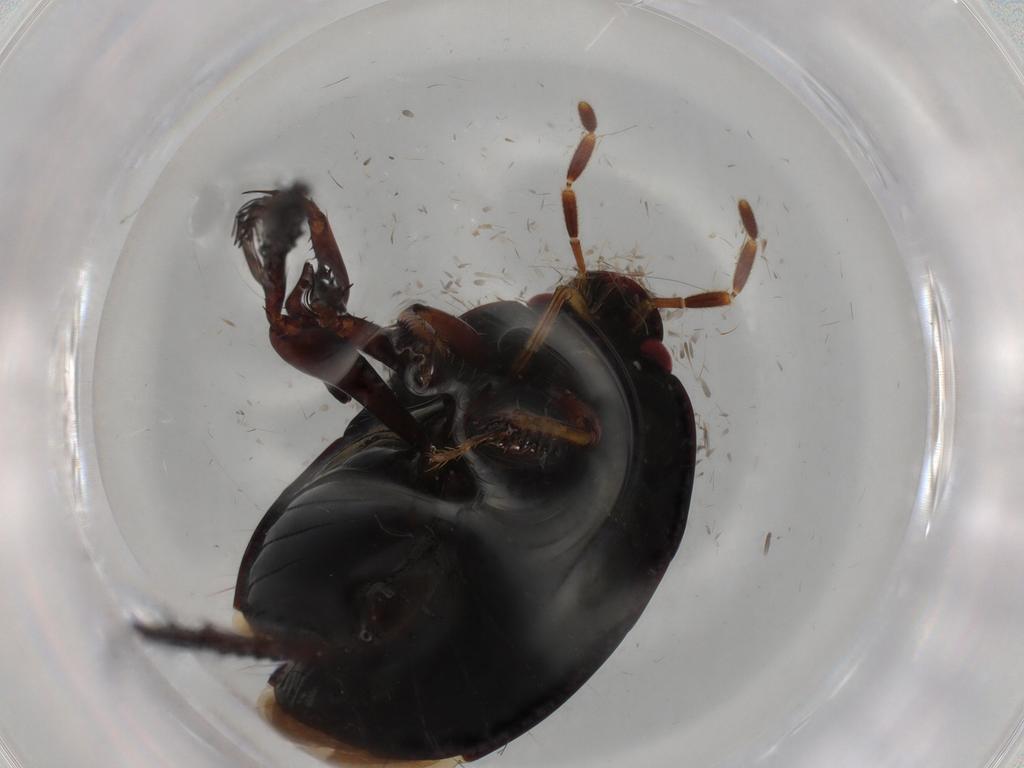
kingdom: Animalia
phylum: Arthropoda
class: Insecta
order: Hemiptera
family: Cydnidae
